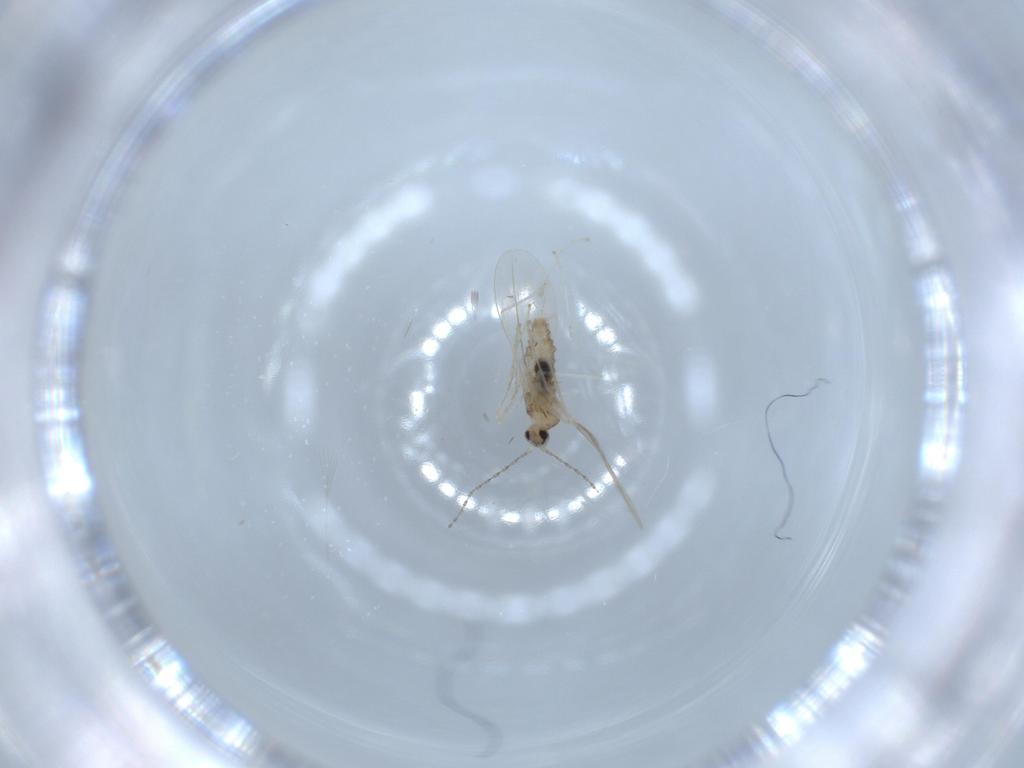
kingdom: Animalia
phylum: Arthropoda
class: Insecta
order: Diptera
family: Cecidomyiidae
